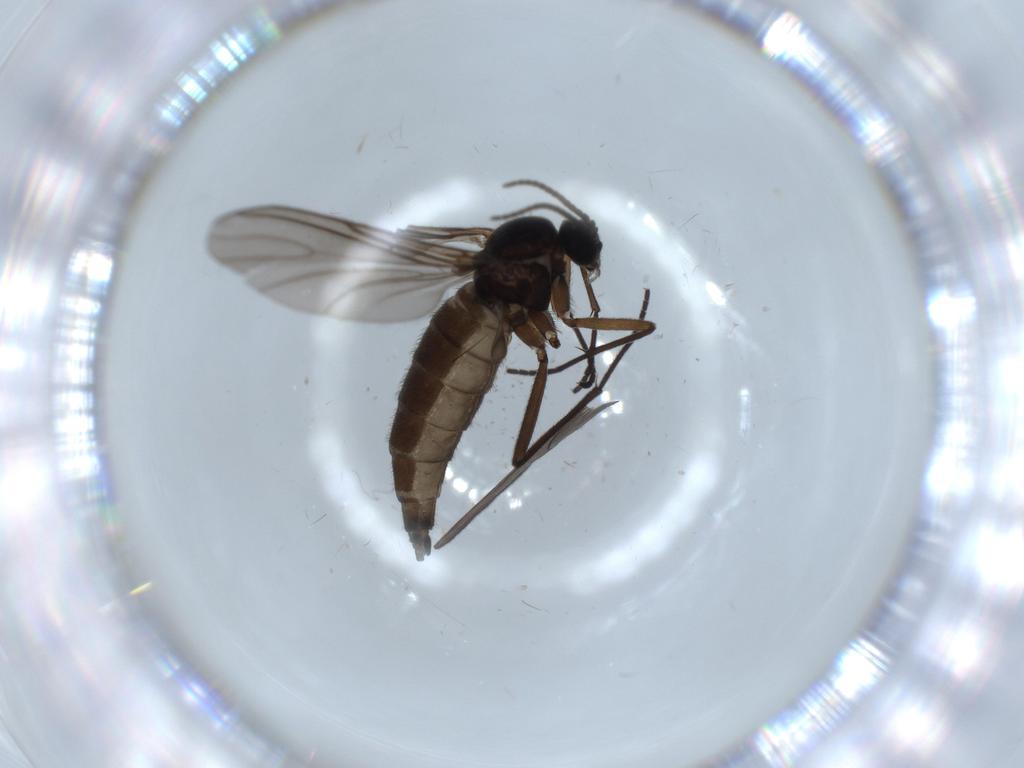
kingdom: Animalia
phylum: Arthropoda
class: Insecta
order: Diptera
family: Sciaridae
